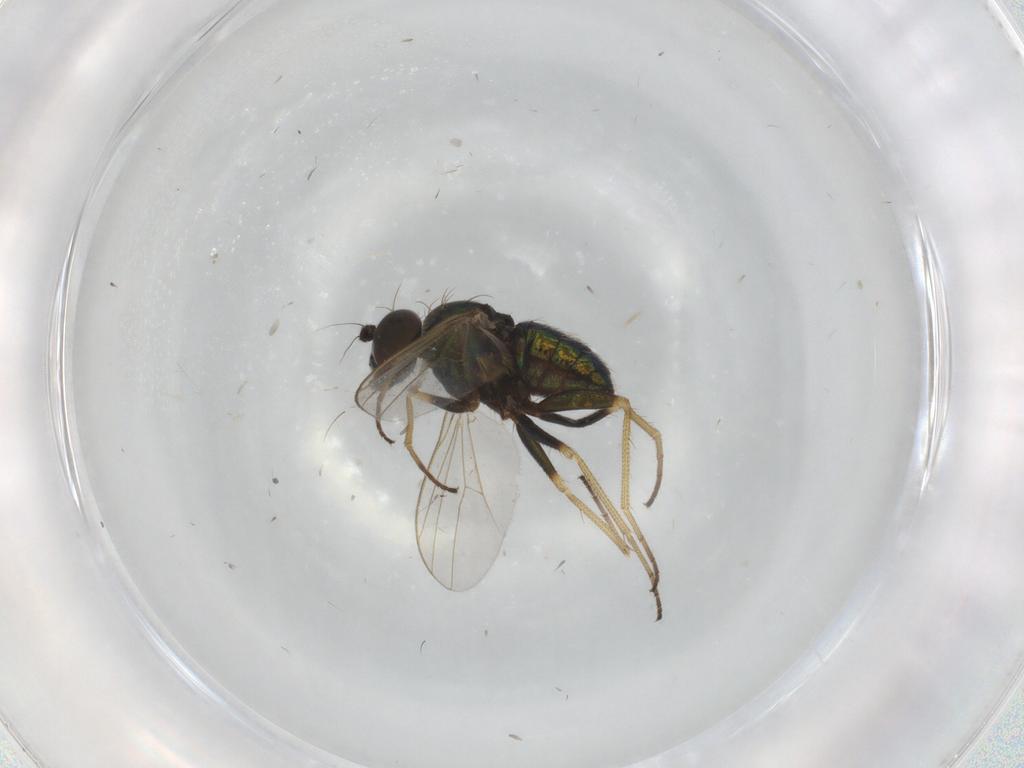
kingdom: Animalia
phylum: Arthropoda
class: Insecta
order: Diptera
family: Dolichopodidae
